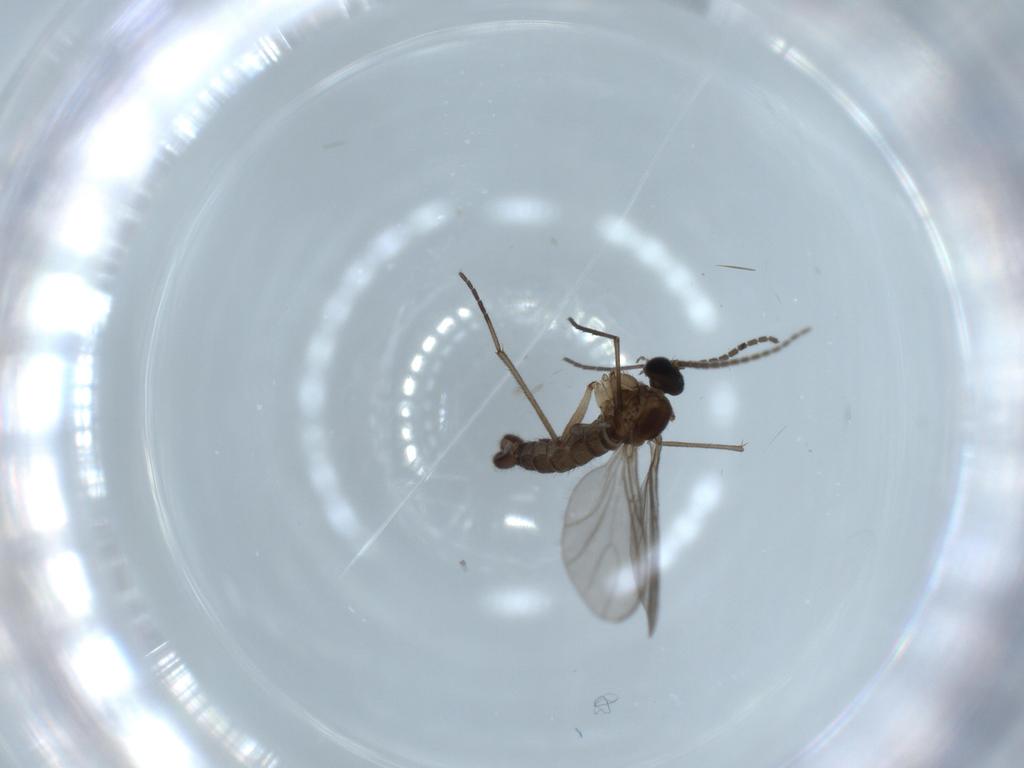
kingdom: Animalia
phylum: Arthropoda
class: Insecta
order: Diptera
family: Sciaridae
